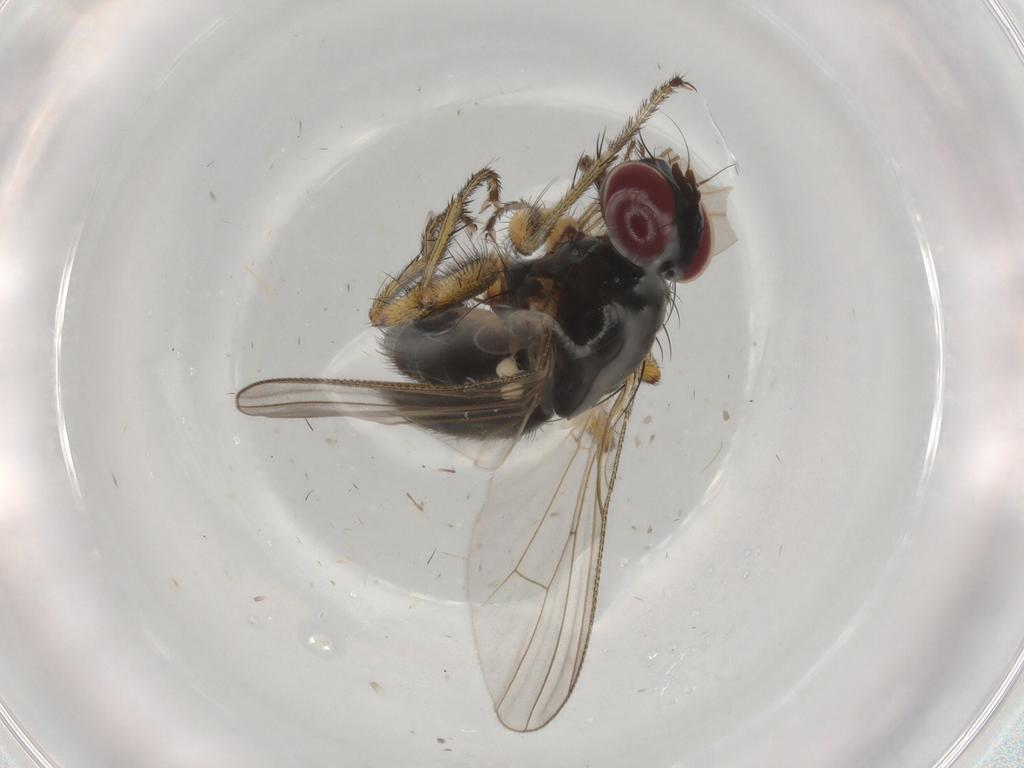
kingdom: Animalia
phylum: Arthropoda
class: Insecta
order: Diptera
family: Muscidae
